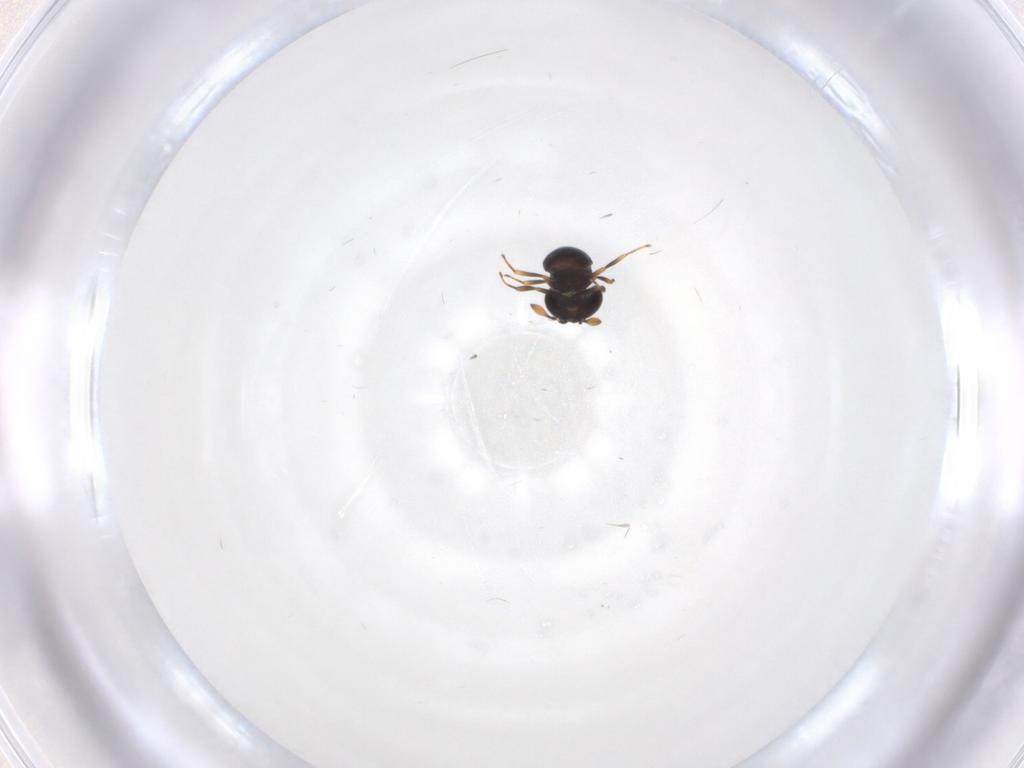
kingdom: Animalia
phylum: Arthropoda
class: Insecta
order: Hymenoptera
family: Scelionidae
